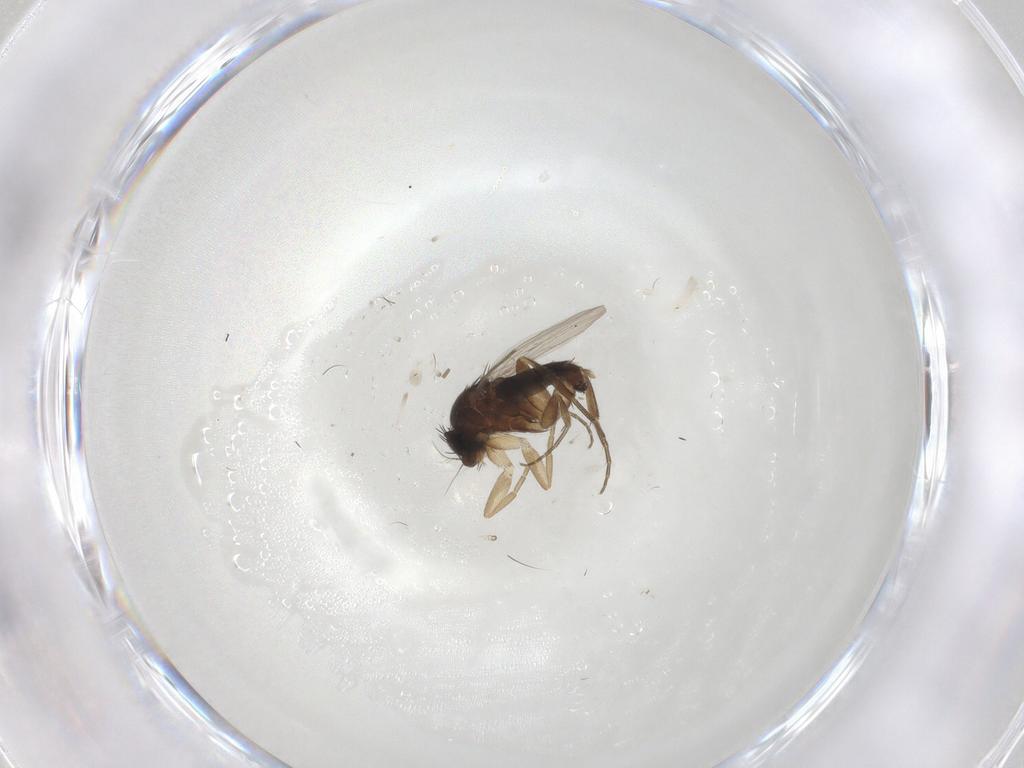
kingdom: Animalia
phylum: Arthropoda
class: Insecta
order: Diptera
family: Phoridae
